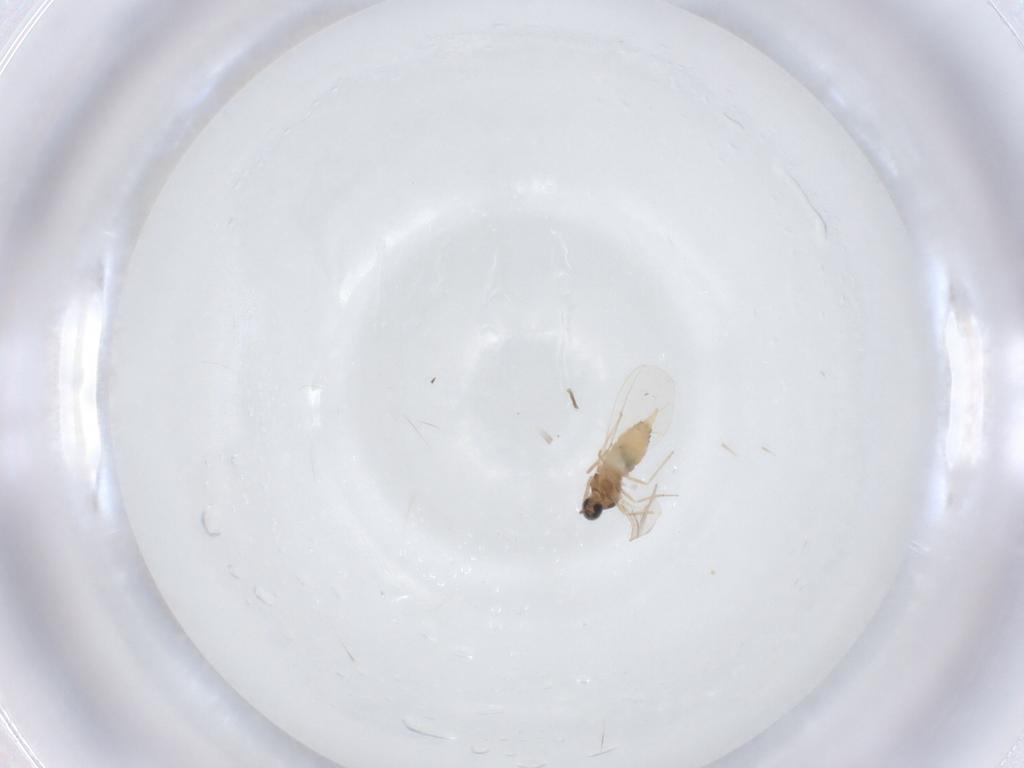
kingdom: Animalia
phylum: Arthropoda
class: Insecta
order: Diptera
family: Cecidomyiidae
